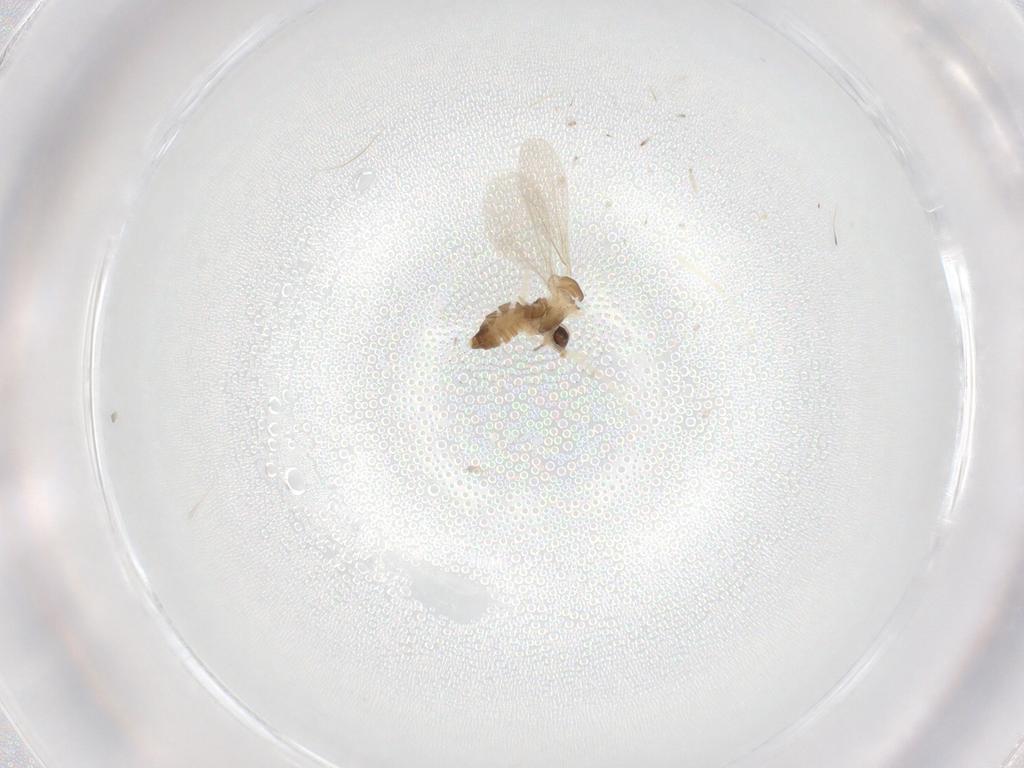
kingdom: Animalia
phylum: Arthropoda
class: Insecta
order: Diptera
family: Cecidomyiidae
